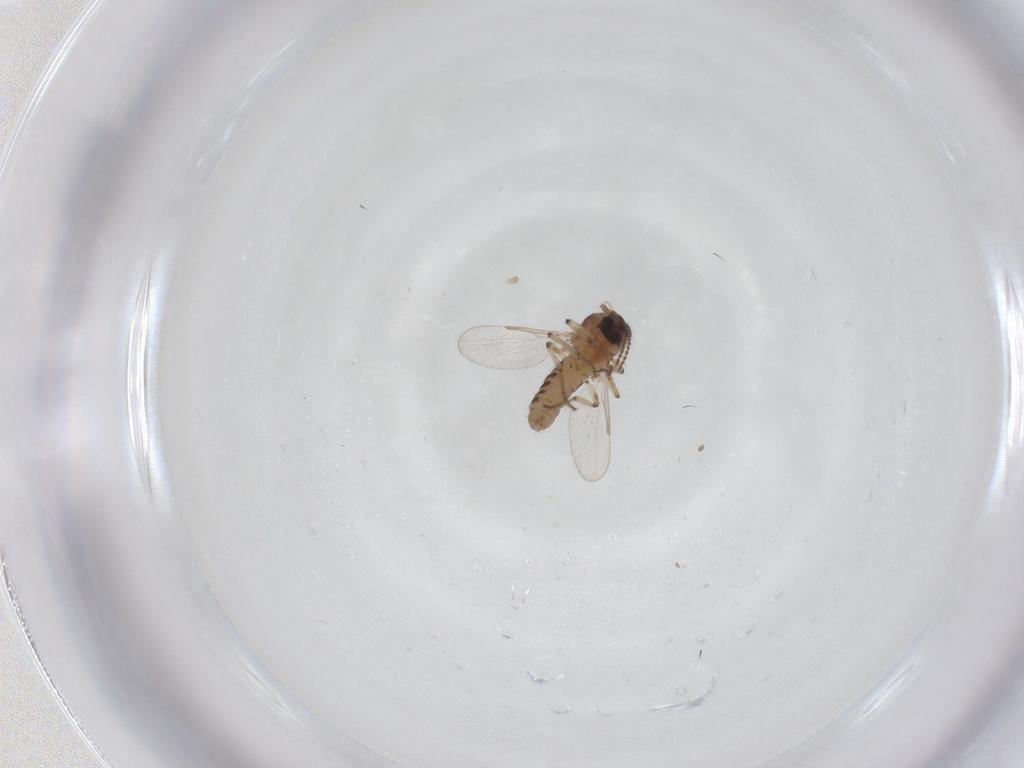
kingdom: Animalia
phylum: Arthropoda
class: Insecta
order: Diptera
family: Ceratopogonidae
